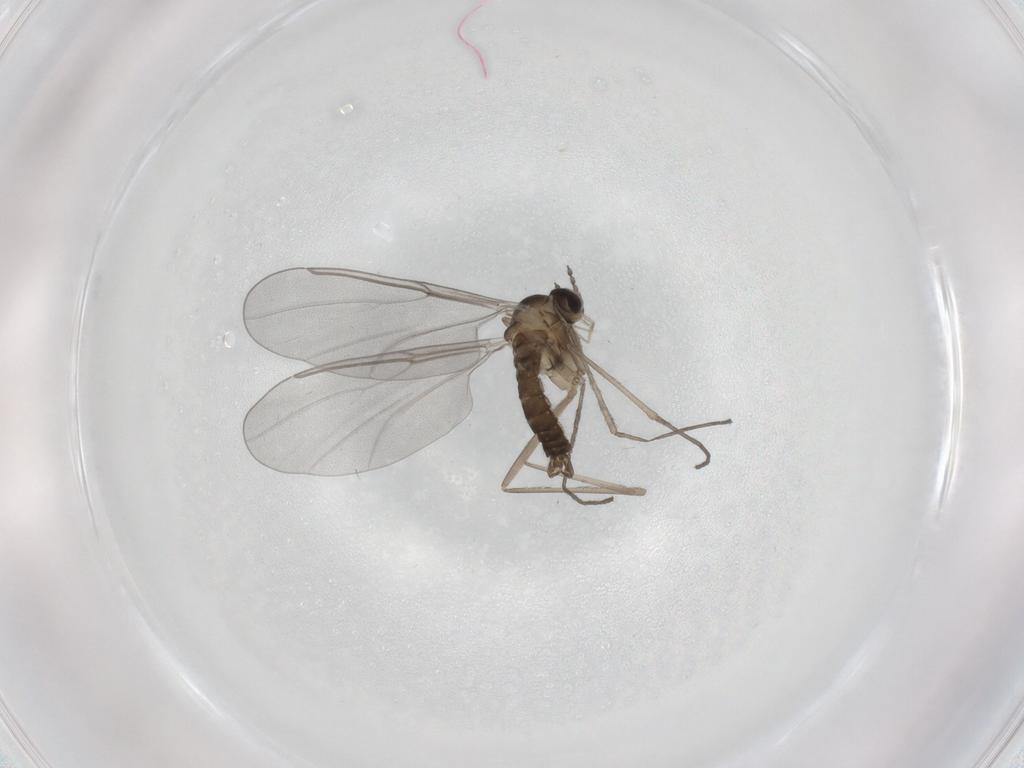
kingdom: Animalia
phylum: Arthropoda
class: Insecta
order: Diptera
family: Cecidomyiidae
